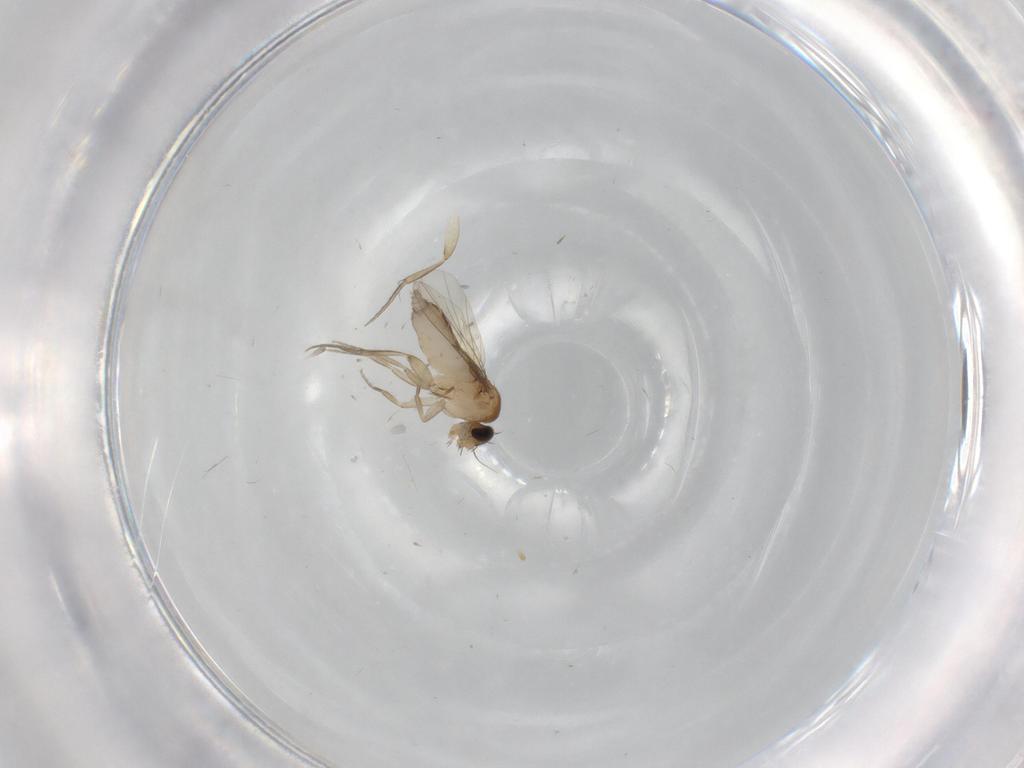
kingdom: Animalia
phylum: Arthropoda
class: Insecta
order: Diptera
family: Phoridae
